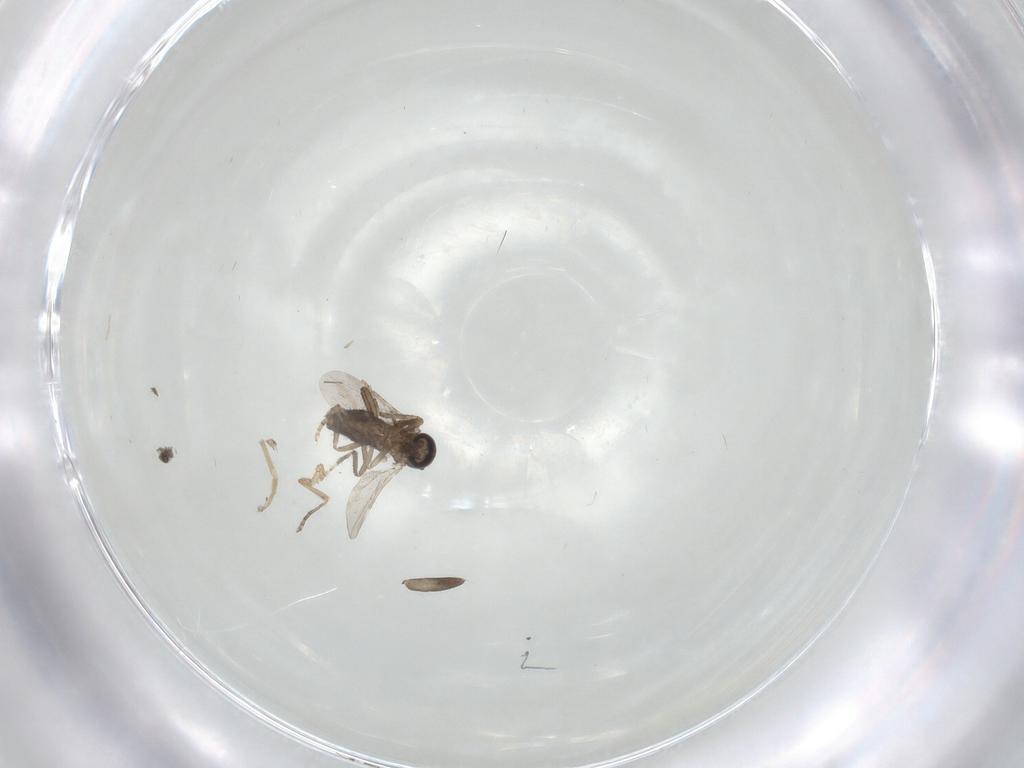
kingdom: Animalia
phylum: Arthropoda
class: Insecta
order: Diptera
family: Ceratopogonidae
